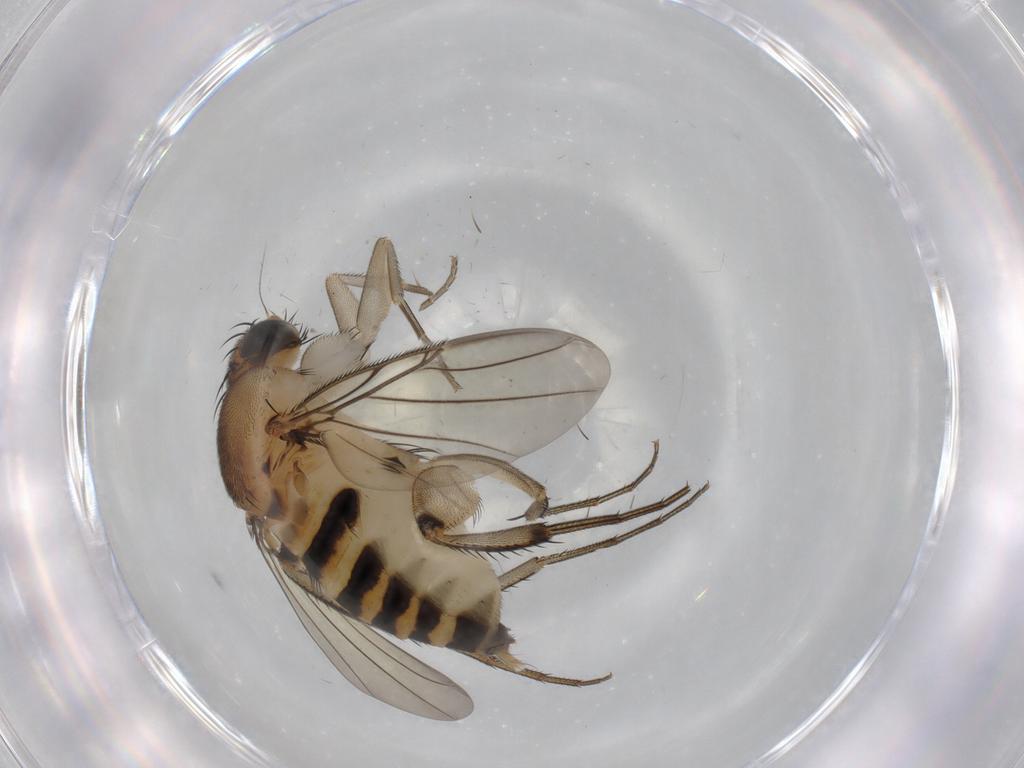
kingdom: Animalia
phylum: Arthropoda
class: Insecta
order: Diptera
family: Phoridae
